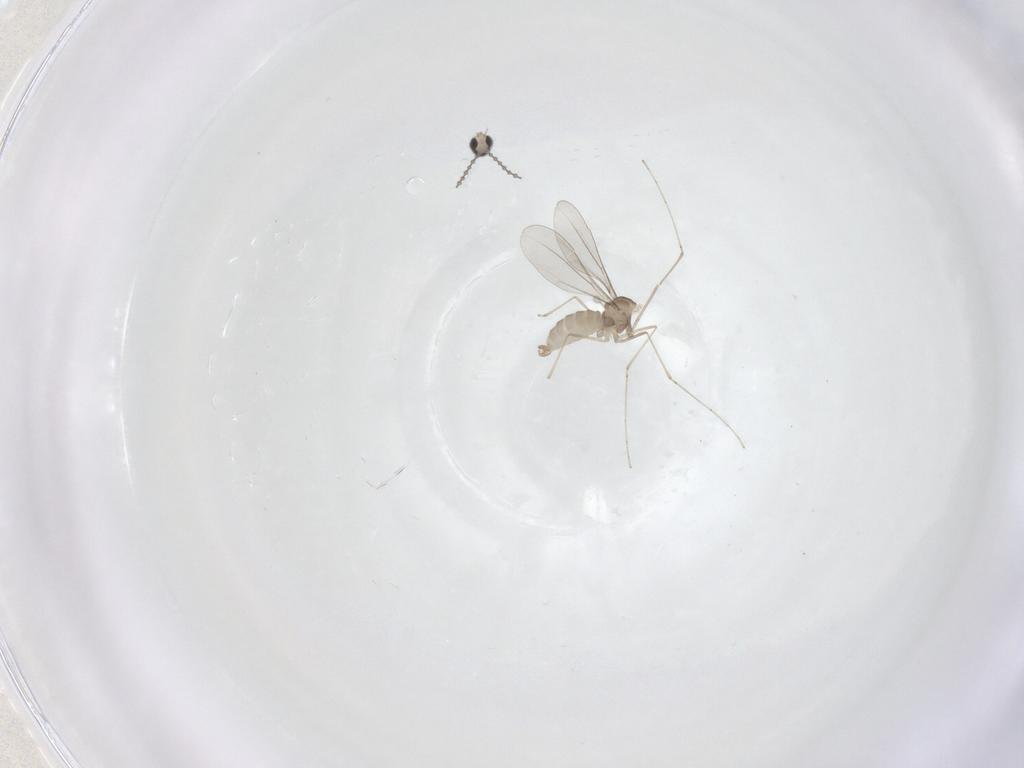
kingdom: Animalia
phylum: Arthropoda
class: Insecta
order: Diptera
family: Cecidomyiidae
